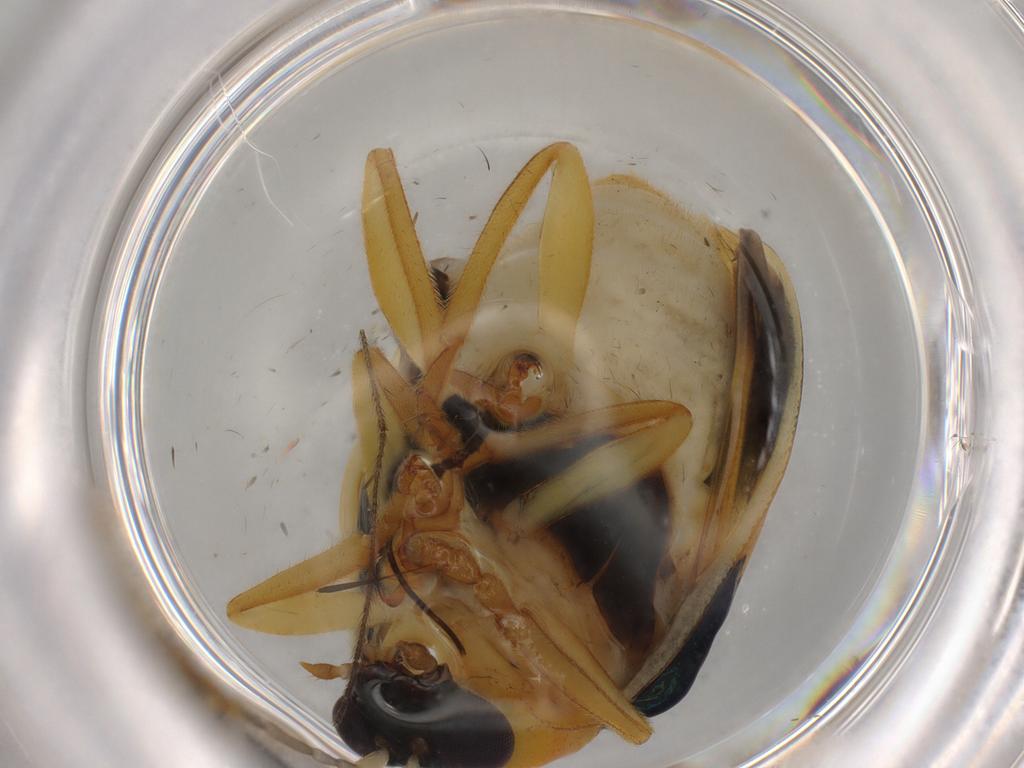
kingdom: Animalia
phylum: Arthropoda
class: Insecta
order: Coleoptera
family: Chrysomelidae
